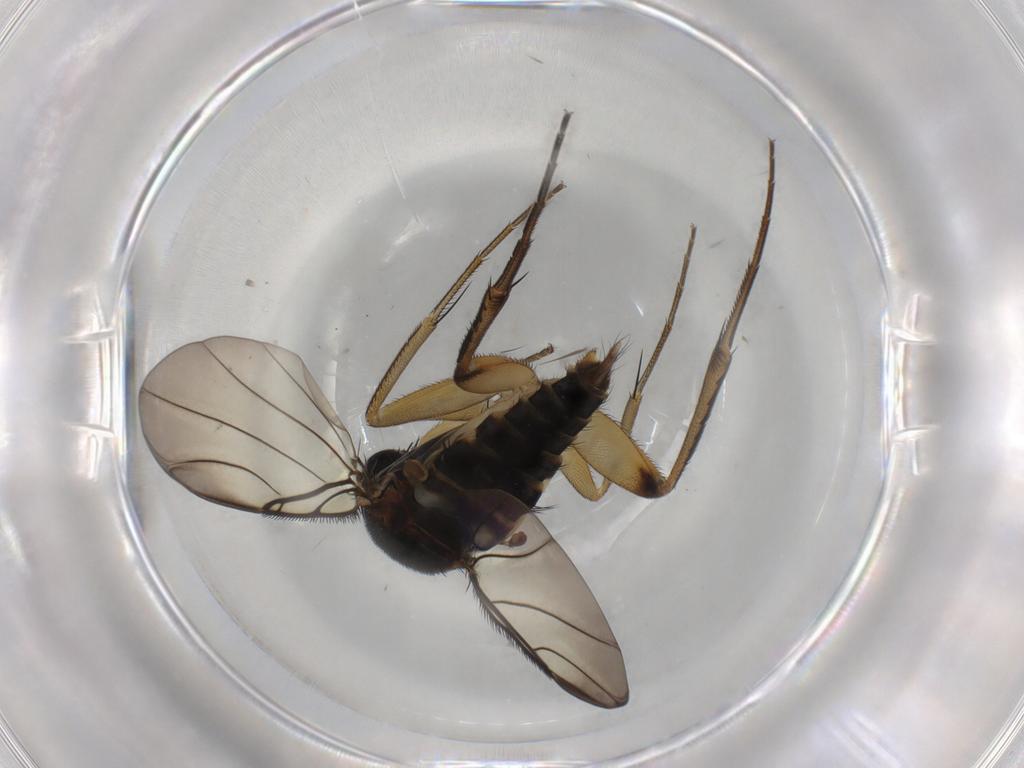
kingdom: Animalia
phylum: Arthropoda
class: Insecta
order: Diptera
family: Phoridae
